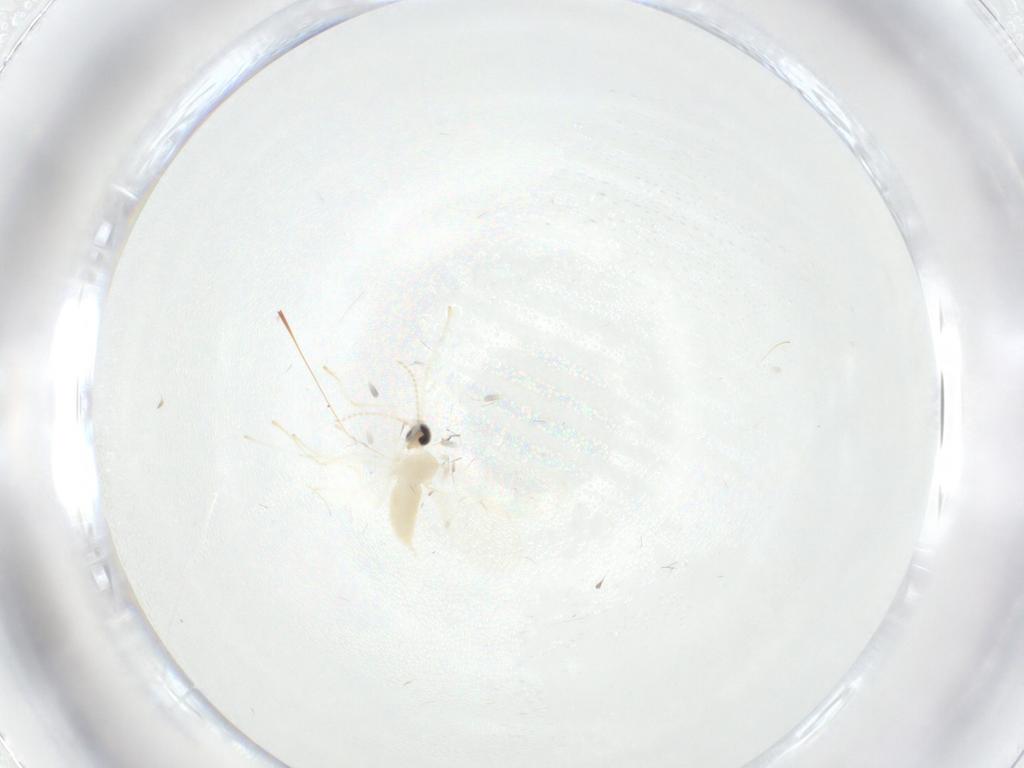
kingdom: Animalia
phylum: Arthropoda
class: Insecta
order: Diptera
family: Cecidomyiidae
